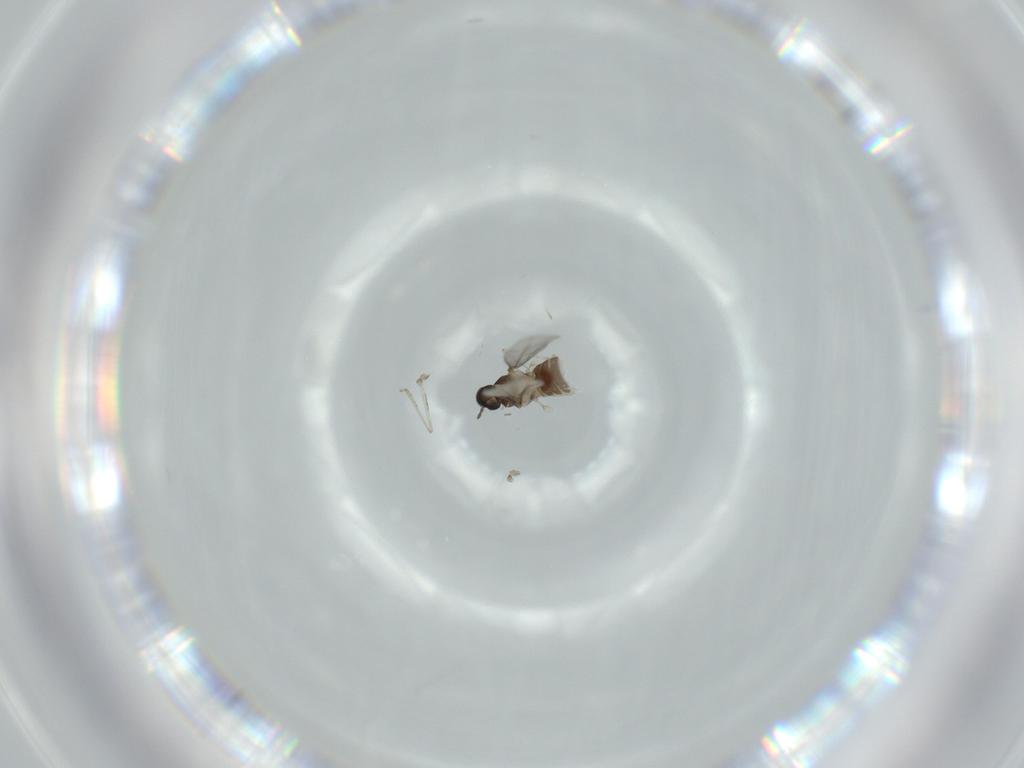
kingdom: Animalia
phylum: Arthropoda
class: Insecta
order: Diptera
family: Cecidomyiidae
